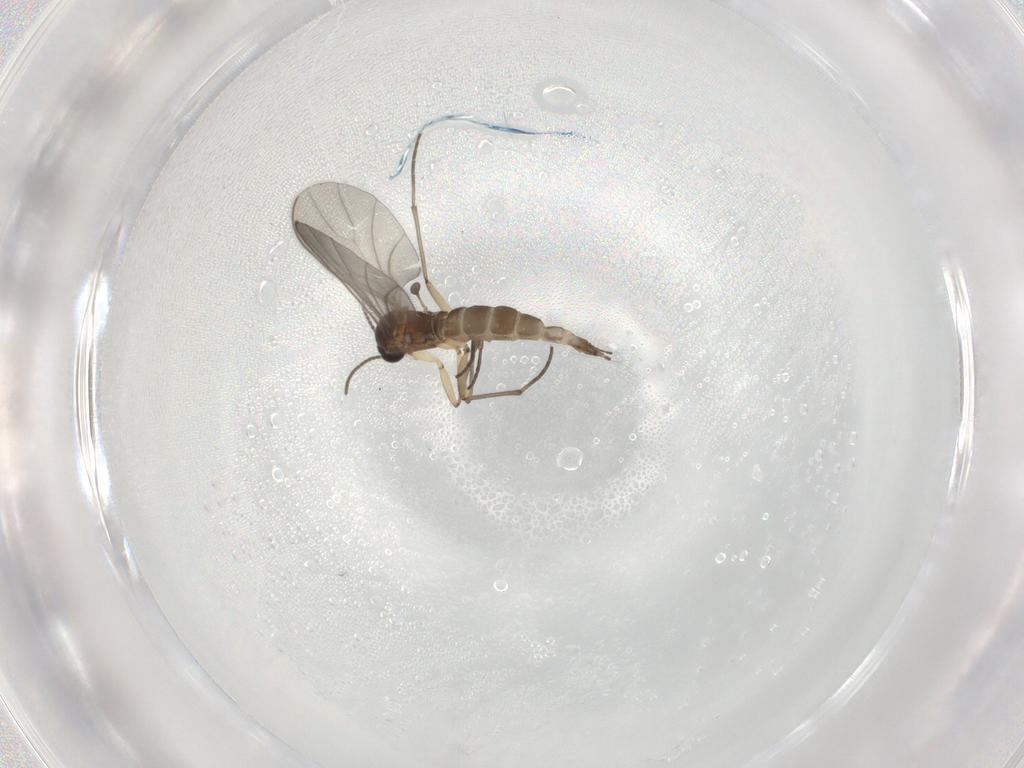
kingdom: Animalia
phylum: Arthropoda
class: Insecta
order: Diptera
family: Sciaridae
